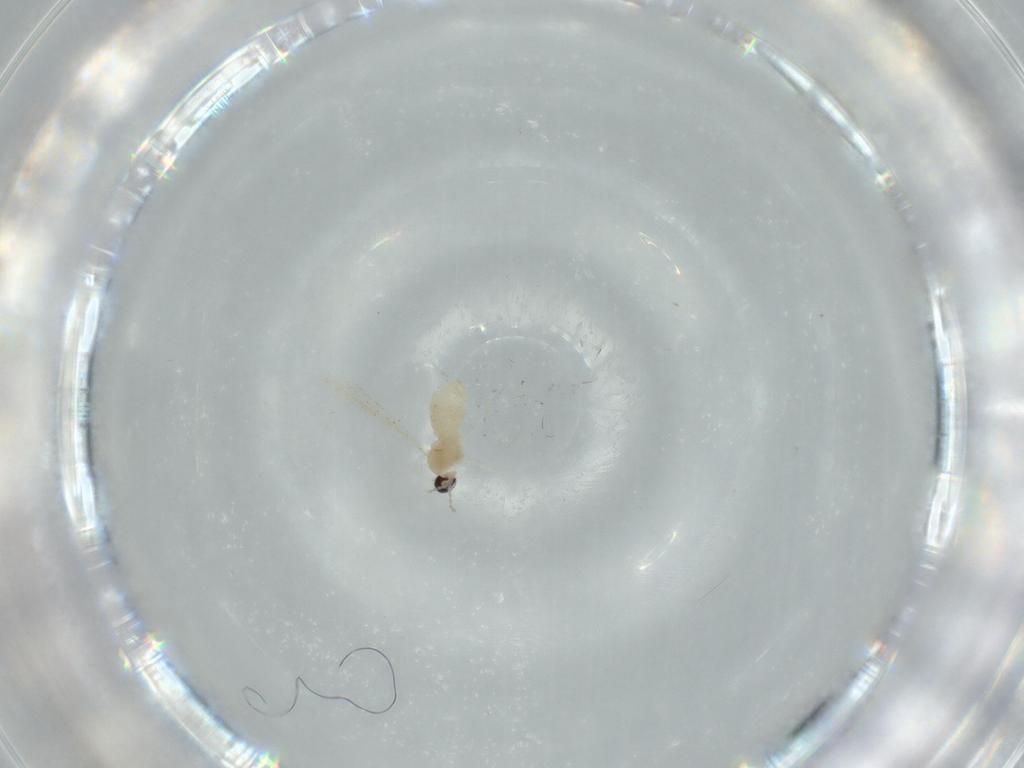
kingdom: Animalia
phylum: Arthropoda
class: Insecta
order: Diptera
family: Cecidomyiidae
